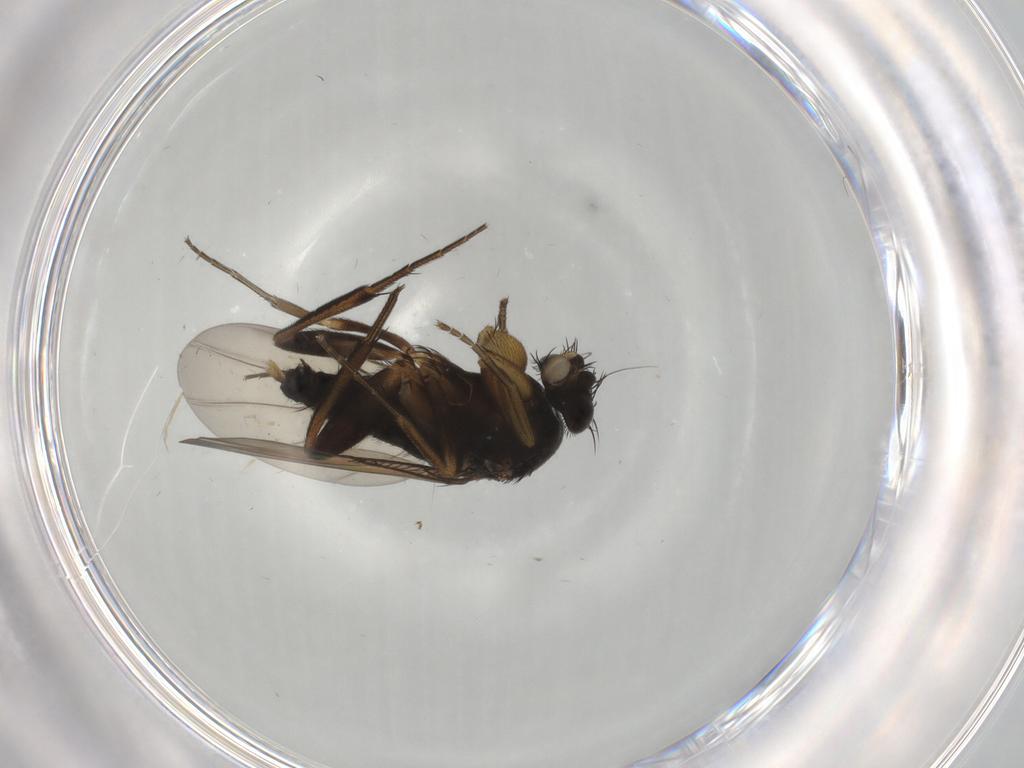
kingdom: Animalia
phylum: Arthropoda
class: Insecta
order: Diptera
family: Phoridae
